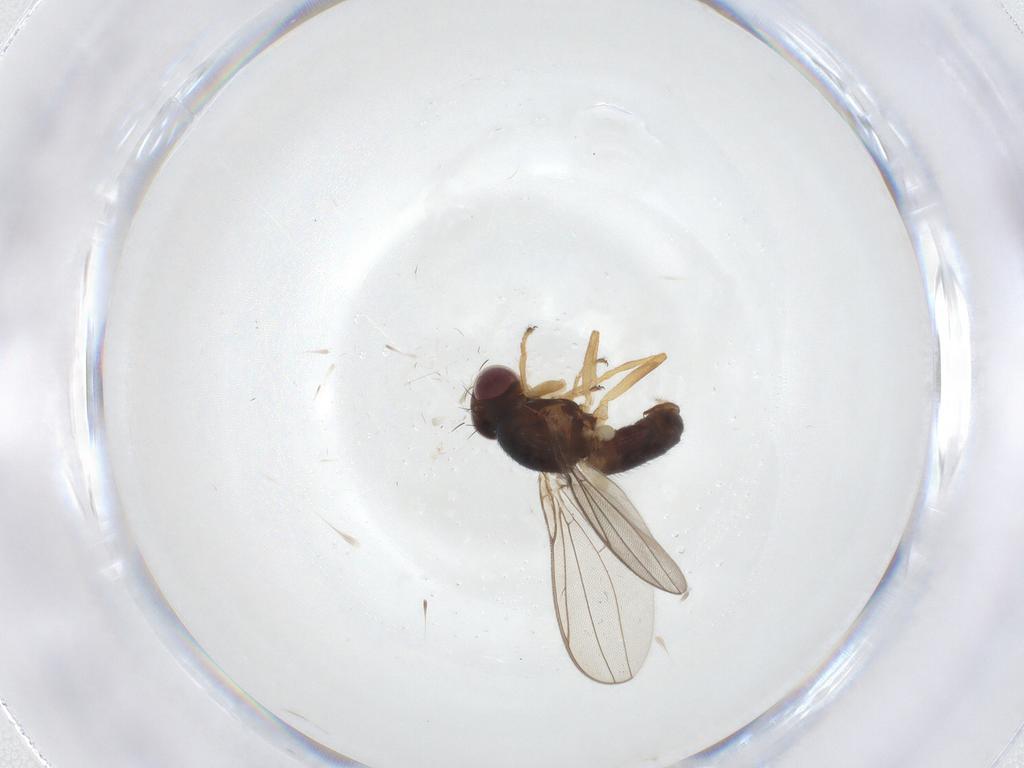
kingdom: Animalia
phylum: Arthropoda
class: Insecta
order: Diptera
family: Asteiidae
